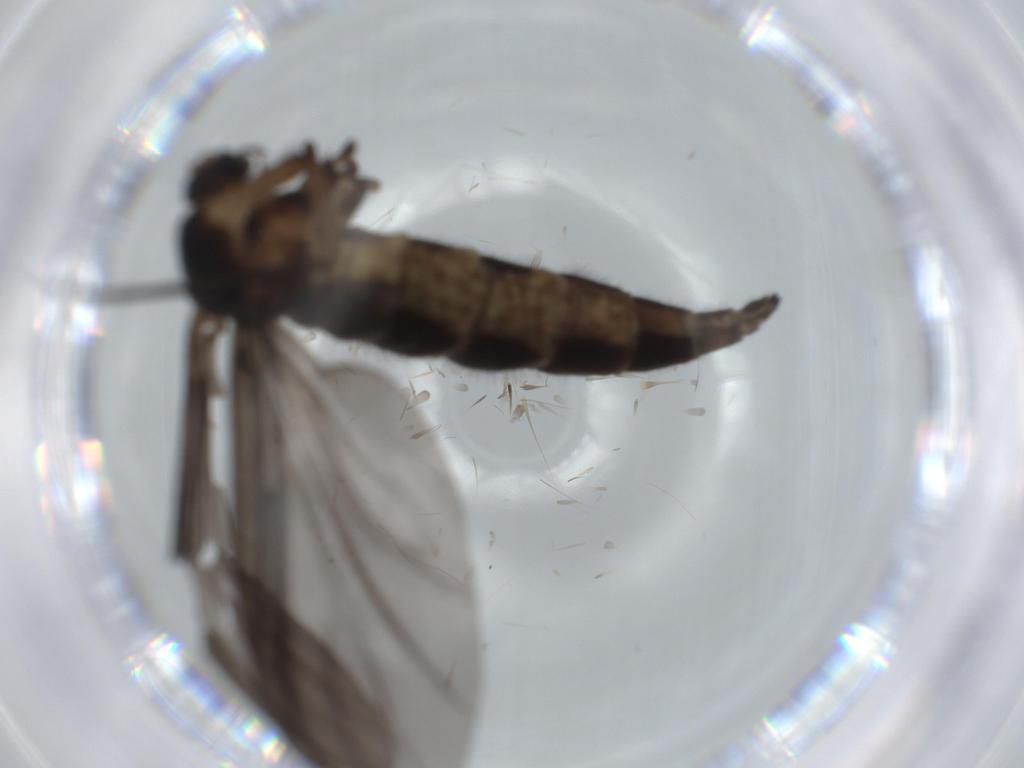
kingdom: Animalia
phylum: Arthropoda
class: Insecta
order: Diptera
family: Sciaridae
